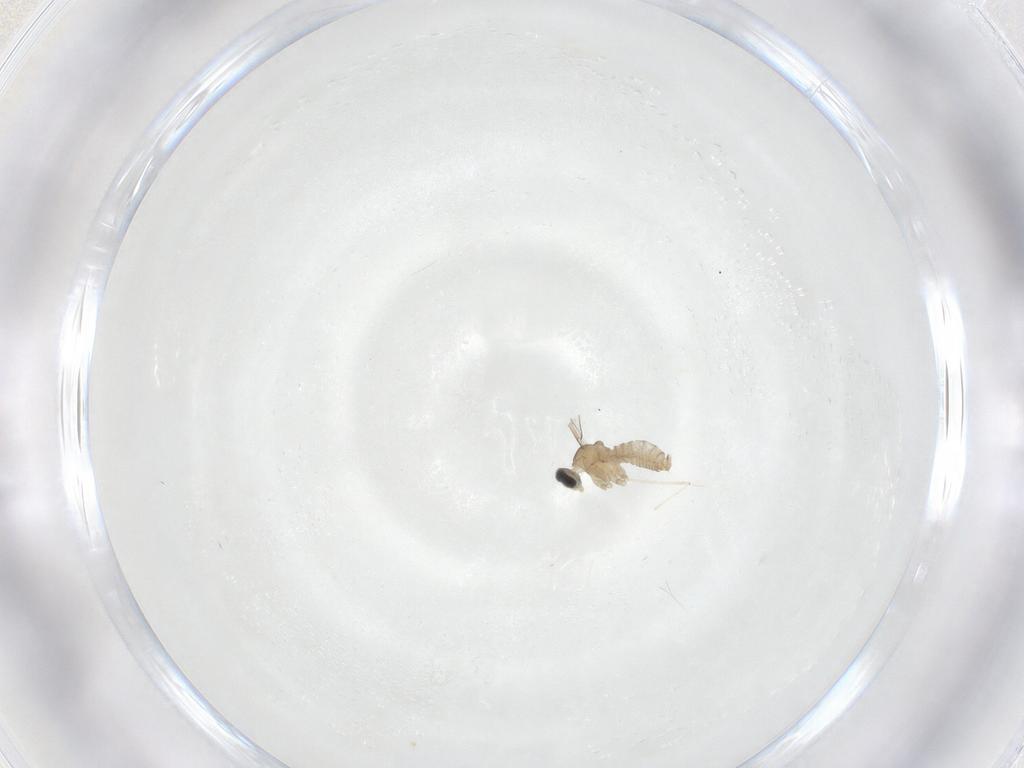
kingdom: Animalia
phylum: Arthropoda
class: Insecta
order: Diptera
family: Cecidomyiidae
